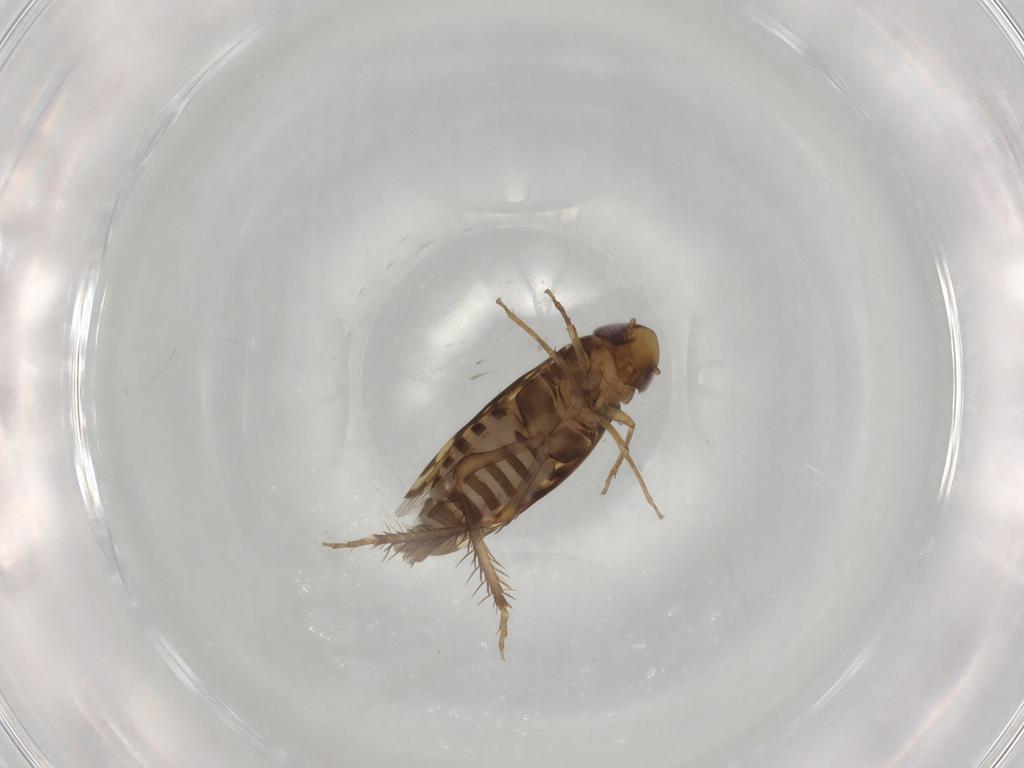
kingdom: Animalia
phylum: Arthropoda
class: Insecta
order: Hemiptera
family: Cicadellidae
